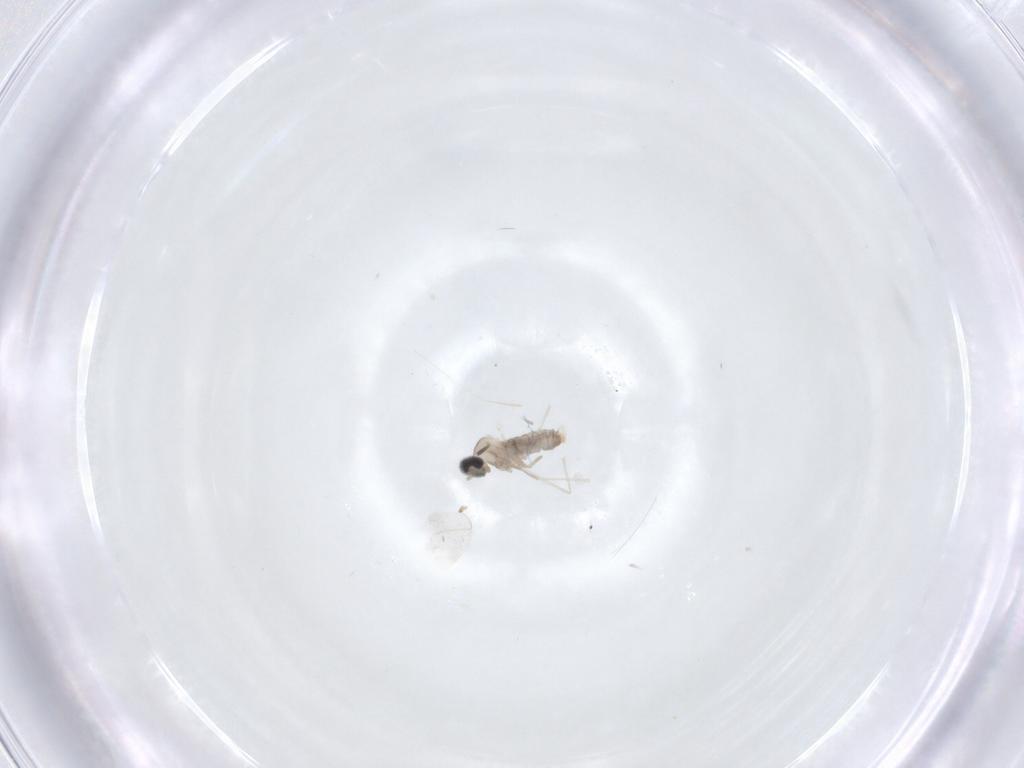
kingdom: Animalia
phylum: Arthropoda
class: Insecta
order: Diptera
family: Cecidomyiidae
